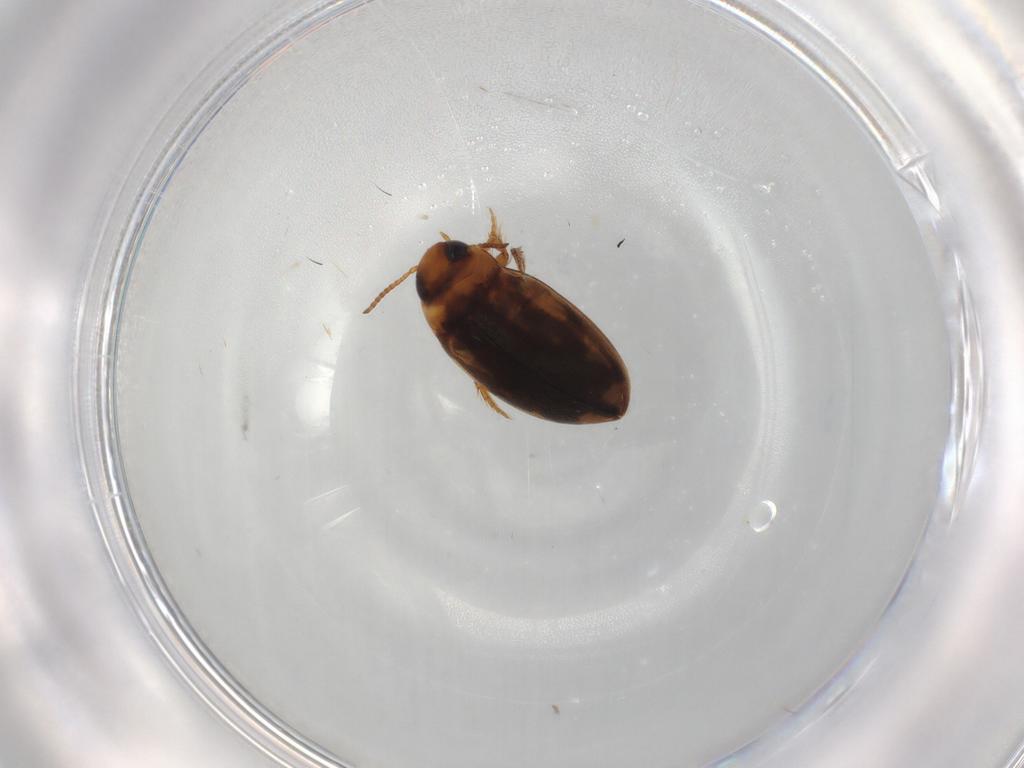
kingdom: Animalia
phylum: Arthropoda
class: Insecta
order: Coleoptera
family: Dytiscidae
